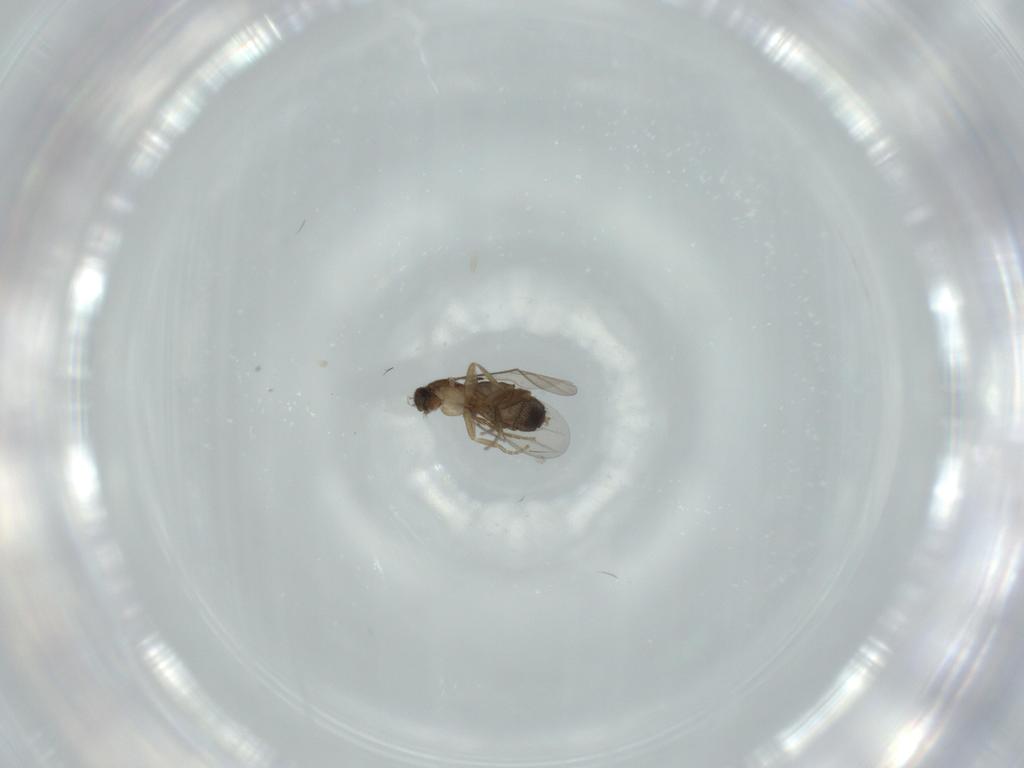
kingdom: Animalia
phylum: Arthropoda
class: Insecta
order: Diptera
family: Phoridae
